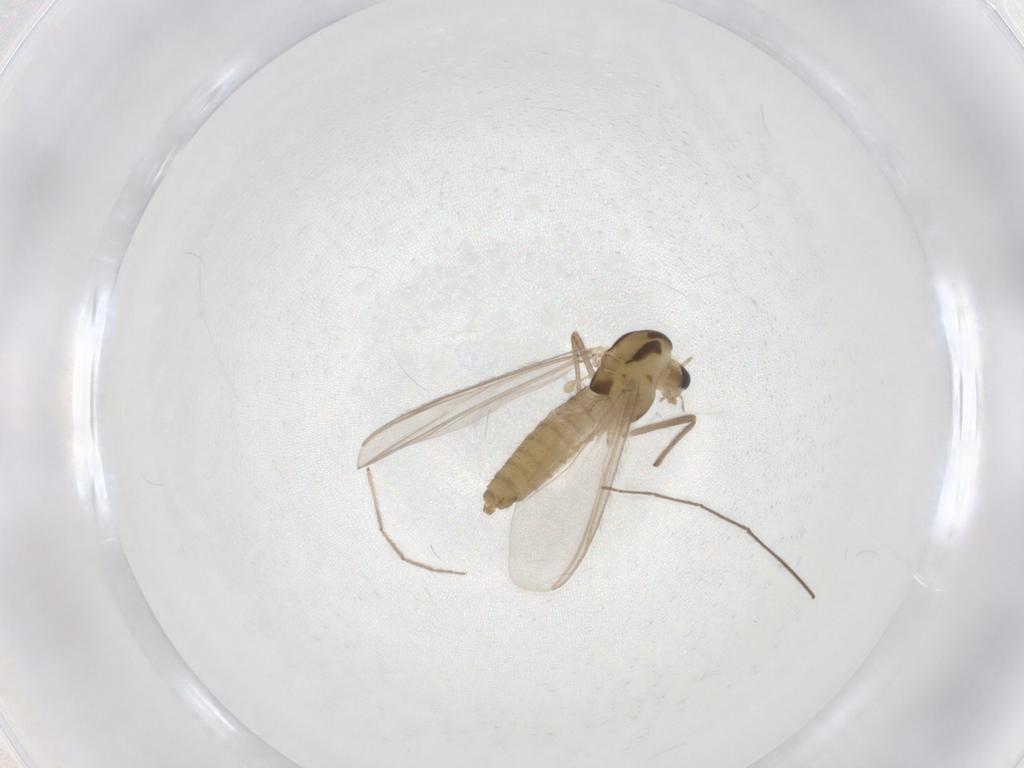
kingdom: Animalia
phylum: Arthropoda
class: Insecta
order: Diptera
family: Chironomidae
